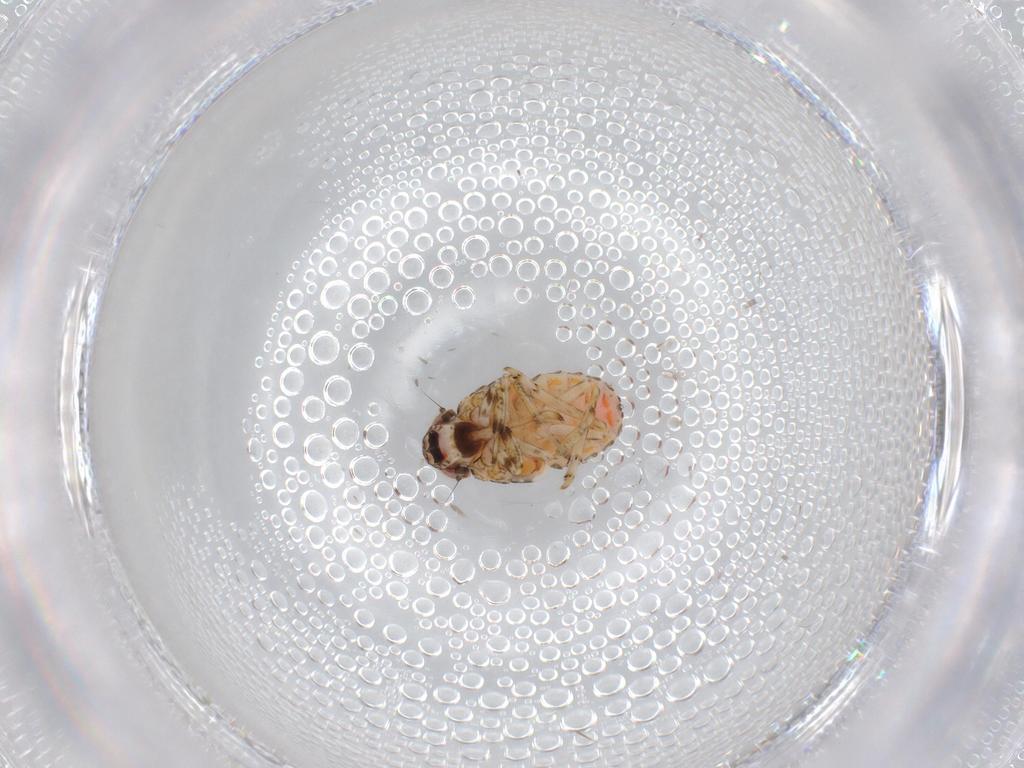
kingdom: Animalia
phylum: Arthropoda
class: Insecta
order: Hemiptera
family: Issidae
